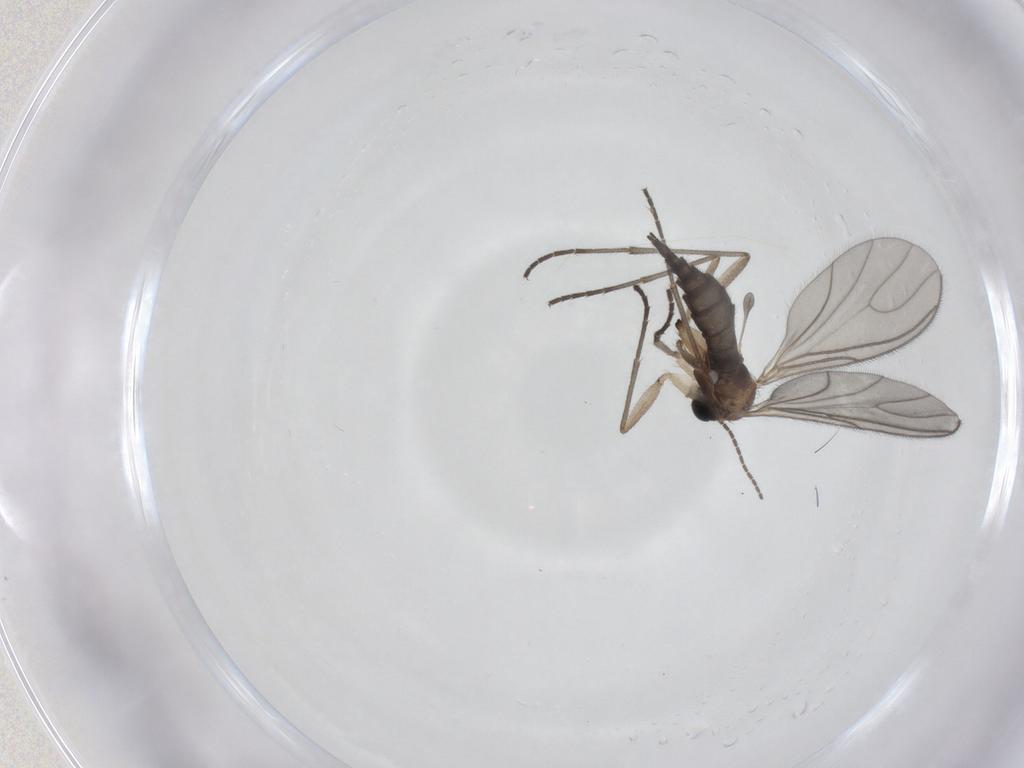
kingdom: Animalia
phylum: Arthropoda
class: Insecta
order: Diptera
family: Sciaridae
